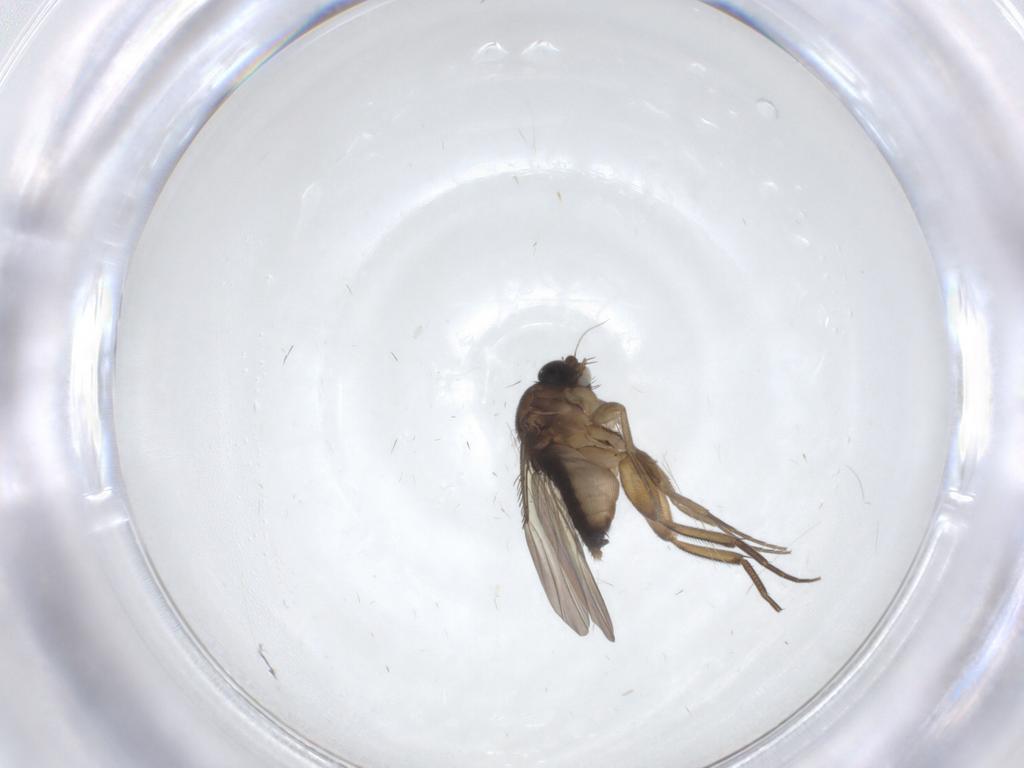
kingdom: Animalia
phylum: Arthropoda
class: Insecta
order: Diptera
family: Phoridae
